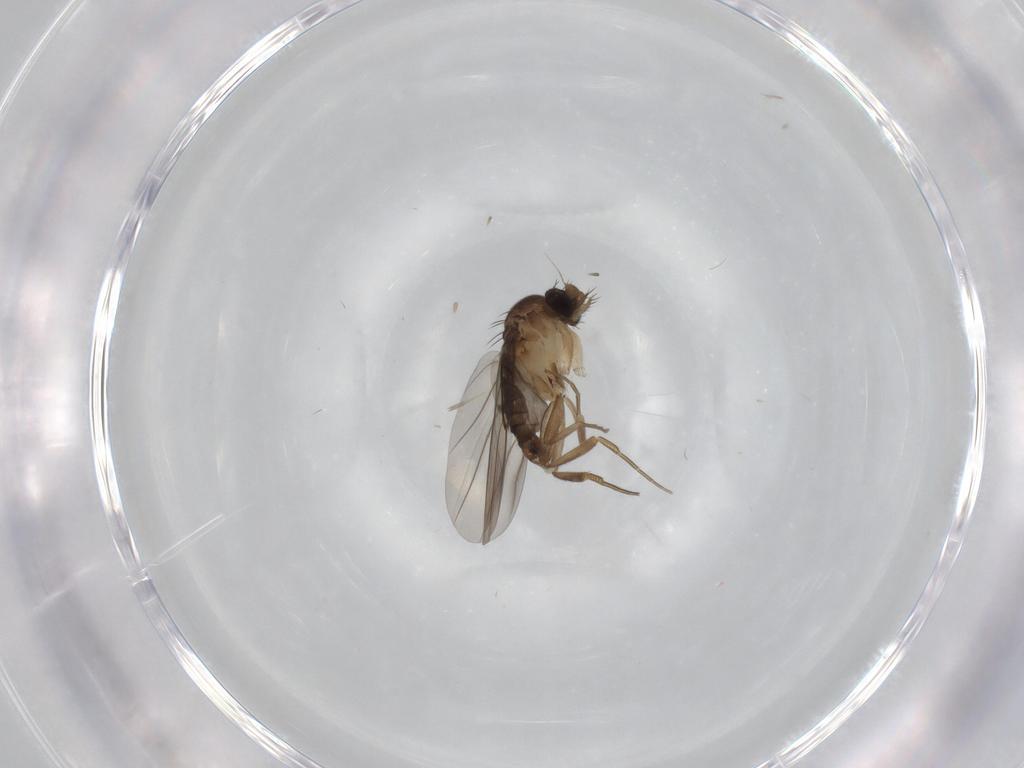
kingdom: Animalia
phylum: Arthropoda
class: Insecta
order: Diptera
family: Phoridae
